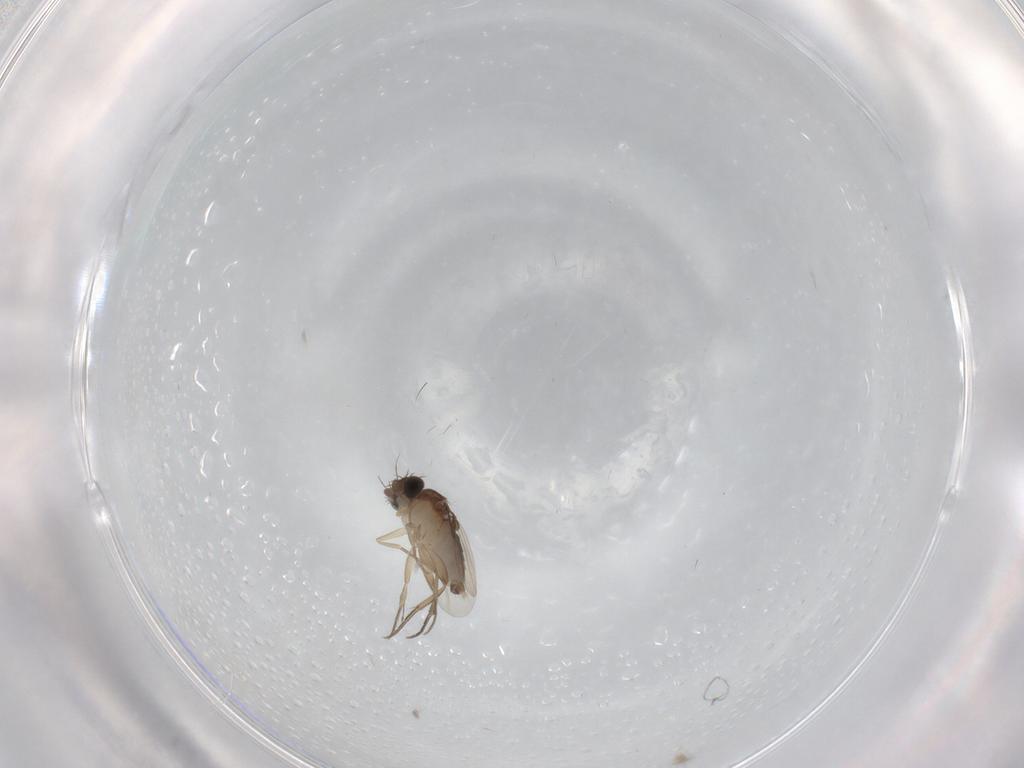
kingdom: Animalia
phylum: Arthropoda
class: Insecta
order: Diptera
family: Phoridae
